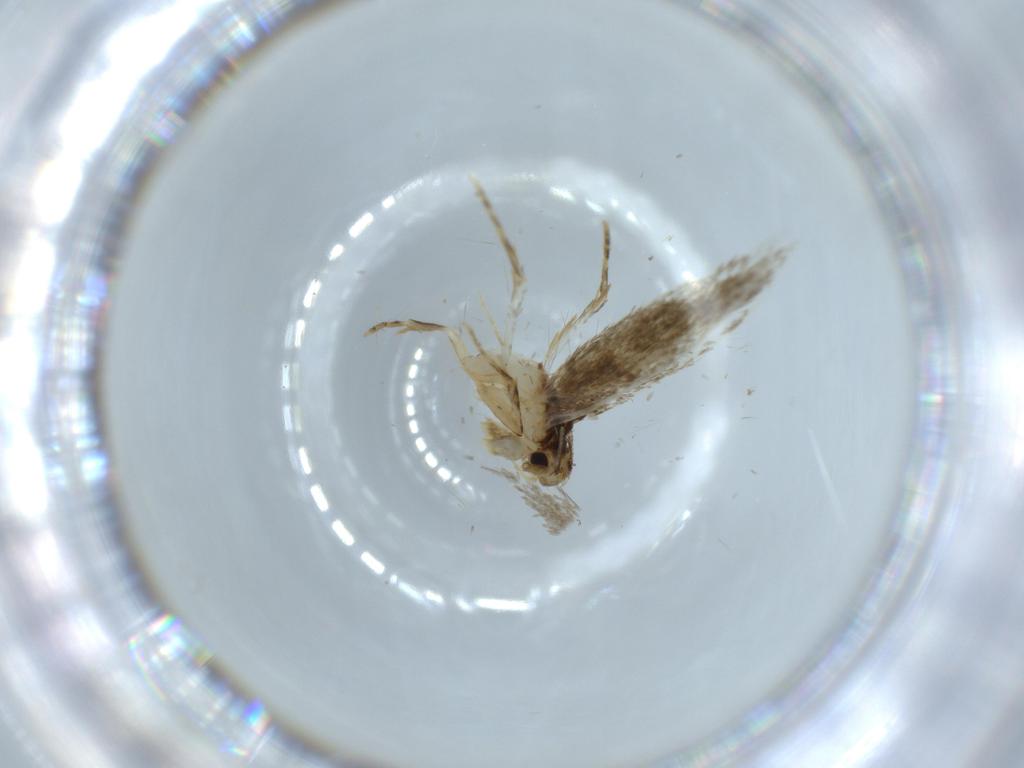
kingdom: Animalia
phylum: Arthropoda
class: Insecta
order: Lepidoptera
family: Tineidae
